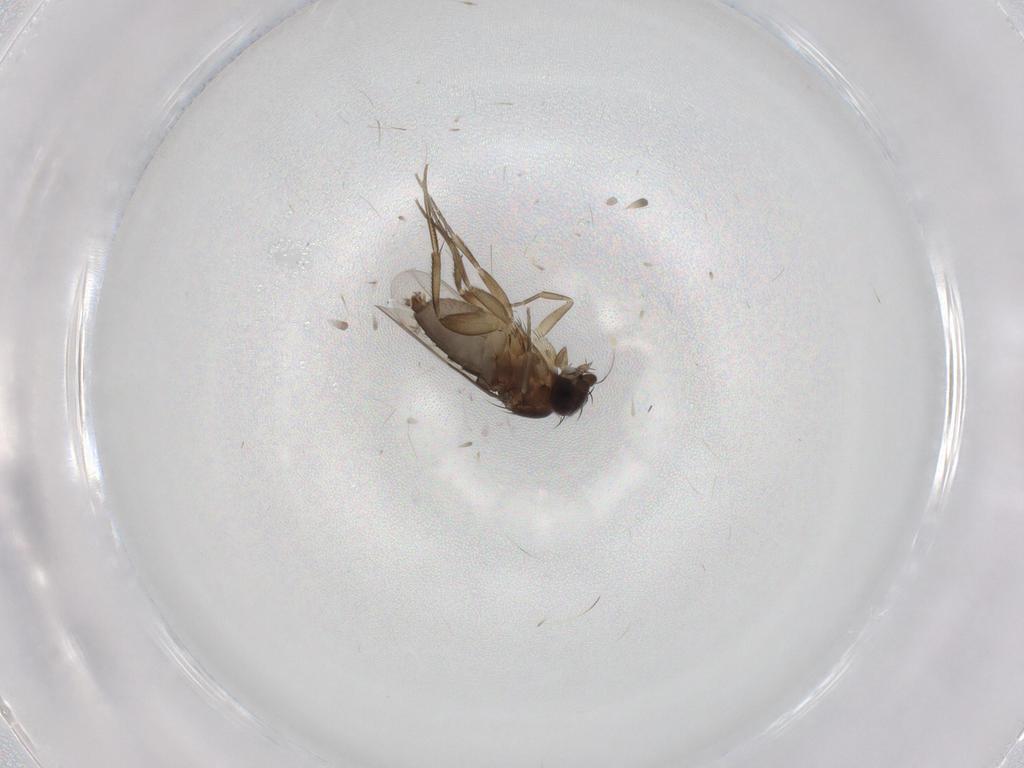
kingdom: Animalia
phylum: Arthropoda
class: Insecta
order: Diptera
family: Phoridae
